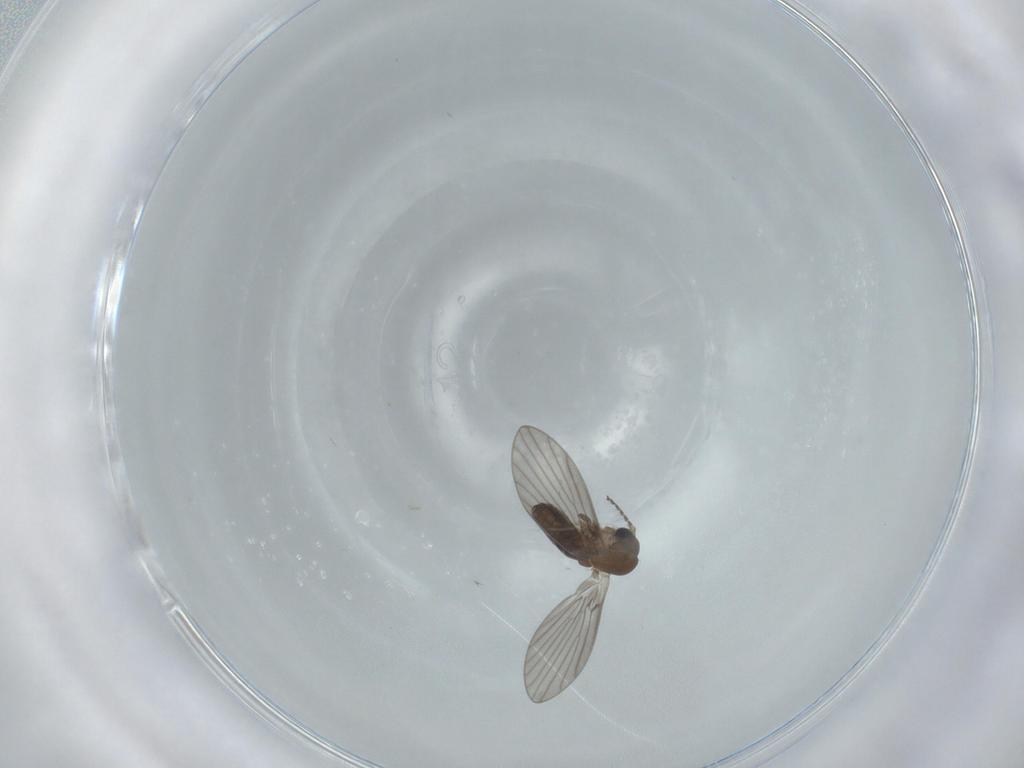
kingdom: Animalia
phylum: Arthropoda
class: Insecta
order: Diptera
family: Psychodidae
